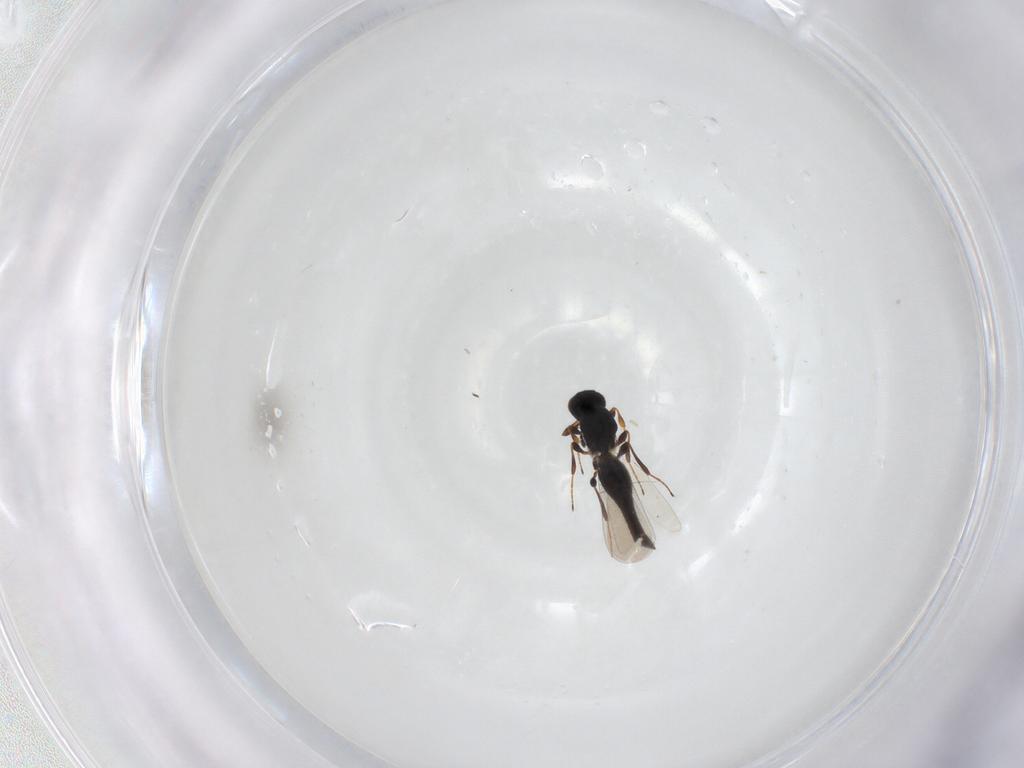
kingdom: Animalia
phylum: Arthropoda
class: Insecta
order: Hymenoptera
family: Platygastridae
